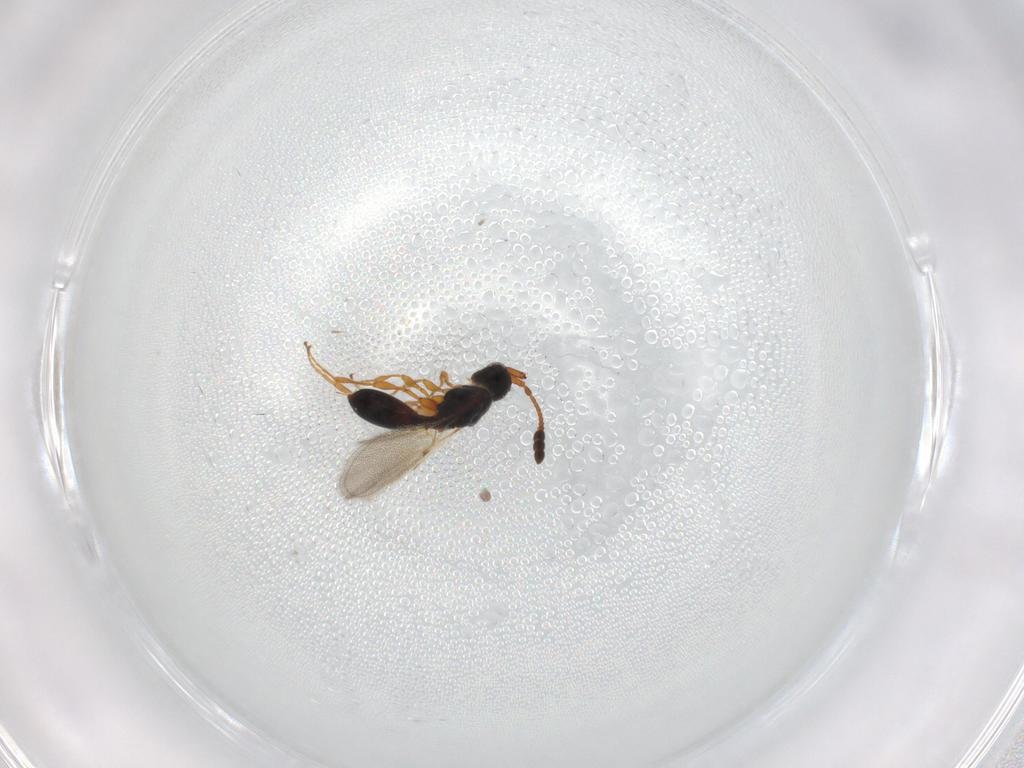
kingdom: Animalia
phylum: Arthropoda
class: Insecta
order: Hymenoptera
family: Diapriidae
